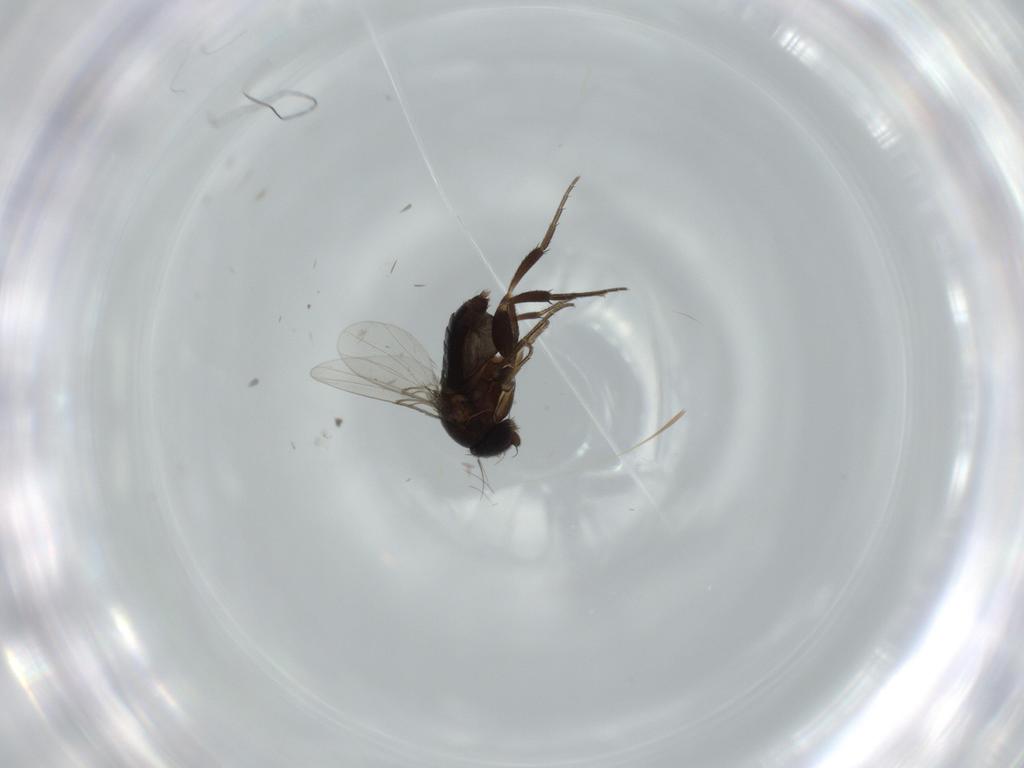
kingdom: Animalia
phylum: Arthropoda
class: Insecta
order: Diptera
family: Phoridae
